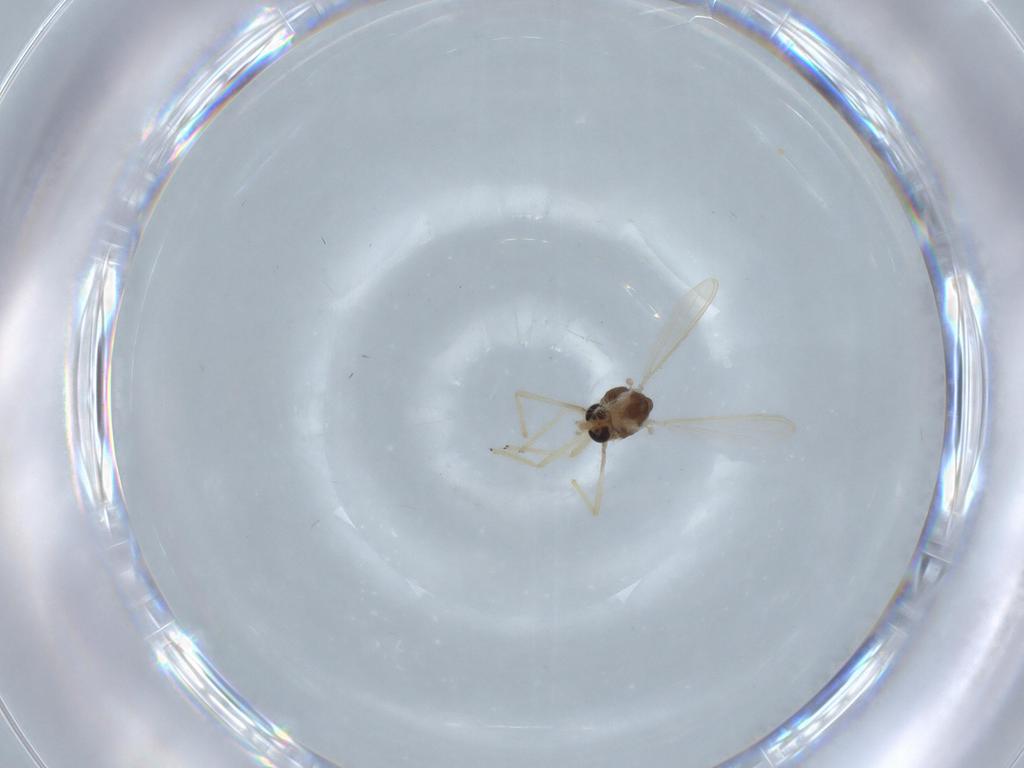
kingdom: Animalia
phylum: Arthropoda
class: Insecta
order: Diptera
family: Chironomidae
